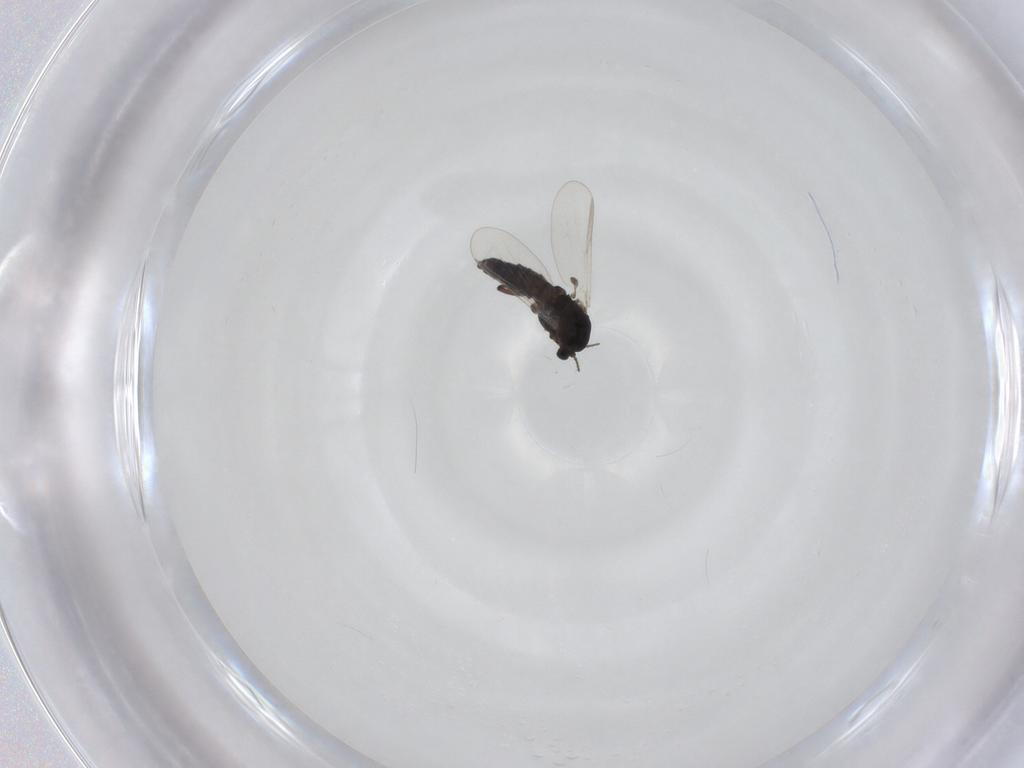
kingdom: Animalia
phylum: Arthropoda
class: Insecta
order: Diptera
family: Chironomidae
